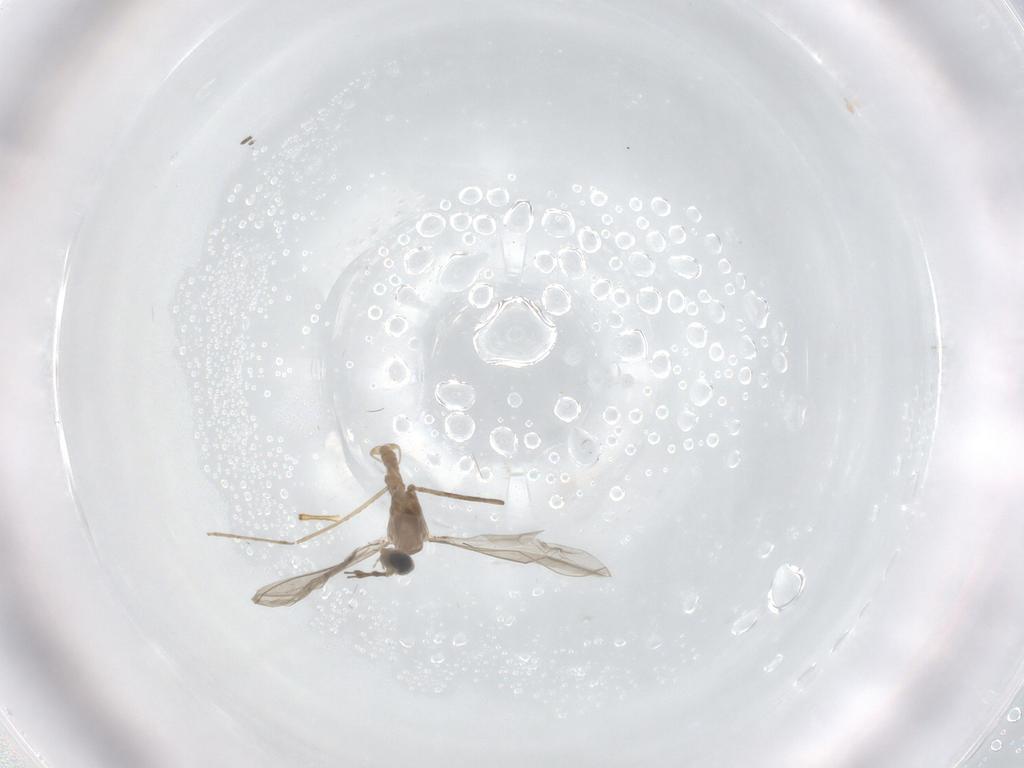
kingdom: Animalia
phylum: Arthropoda
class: Insecta
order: Diptera
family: Cecidomyiidae
